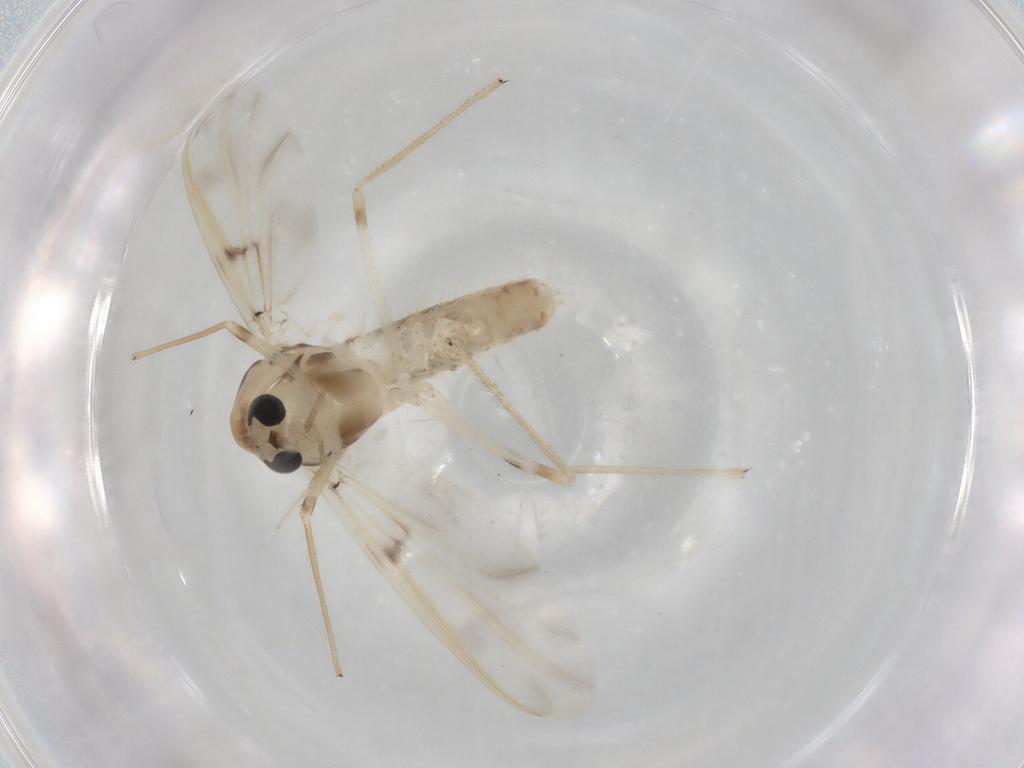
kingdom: Animalia
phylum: Arthropoda
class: Insecta
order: Diptera
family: Chironomidae
